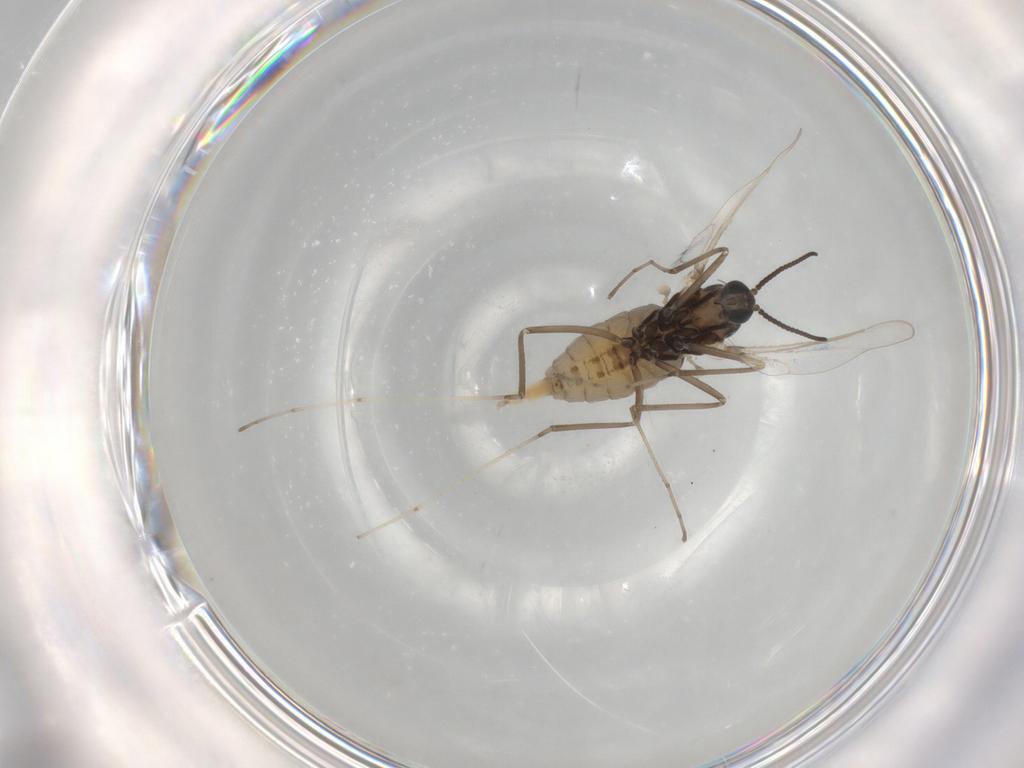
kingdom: Animalia
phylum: Arthropoda
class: Insecta
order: Diptera
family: Cecidomyiidae
